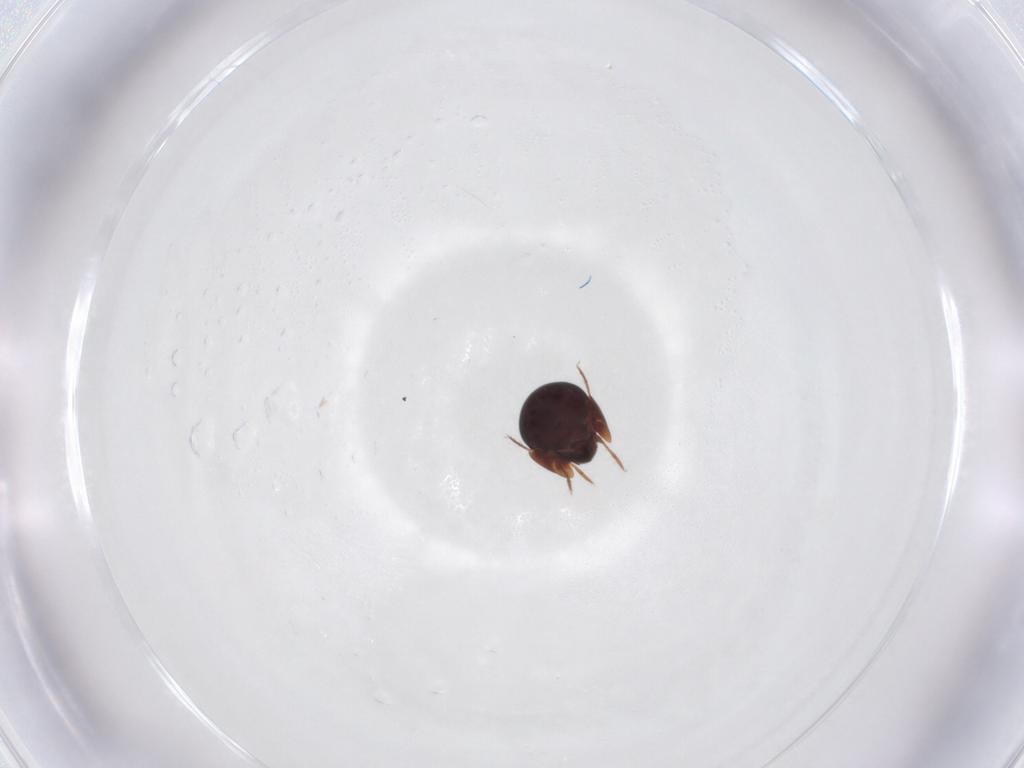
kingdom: Animalia
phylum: Arthropoda
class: Arachnida
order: Sarcoptiformes
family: Galumnidae
